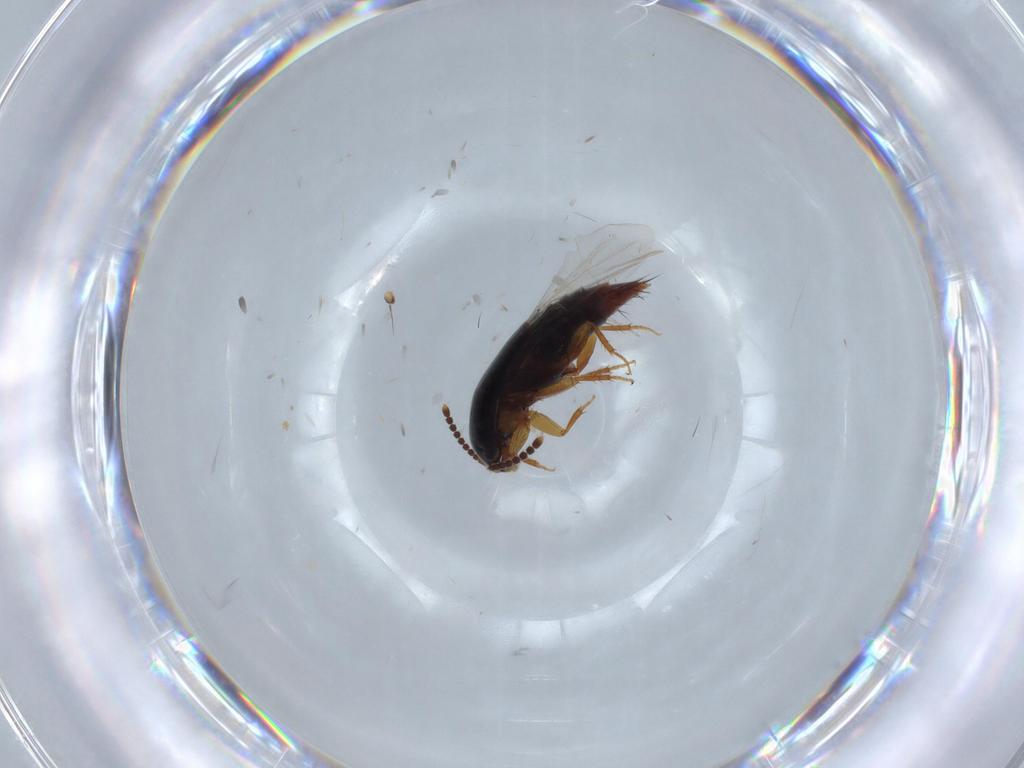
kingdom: Animalia
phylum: Arthropoda
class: Insecta
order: Coleoptera
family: Staphylinidae
